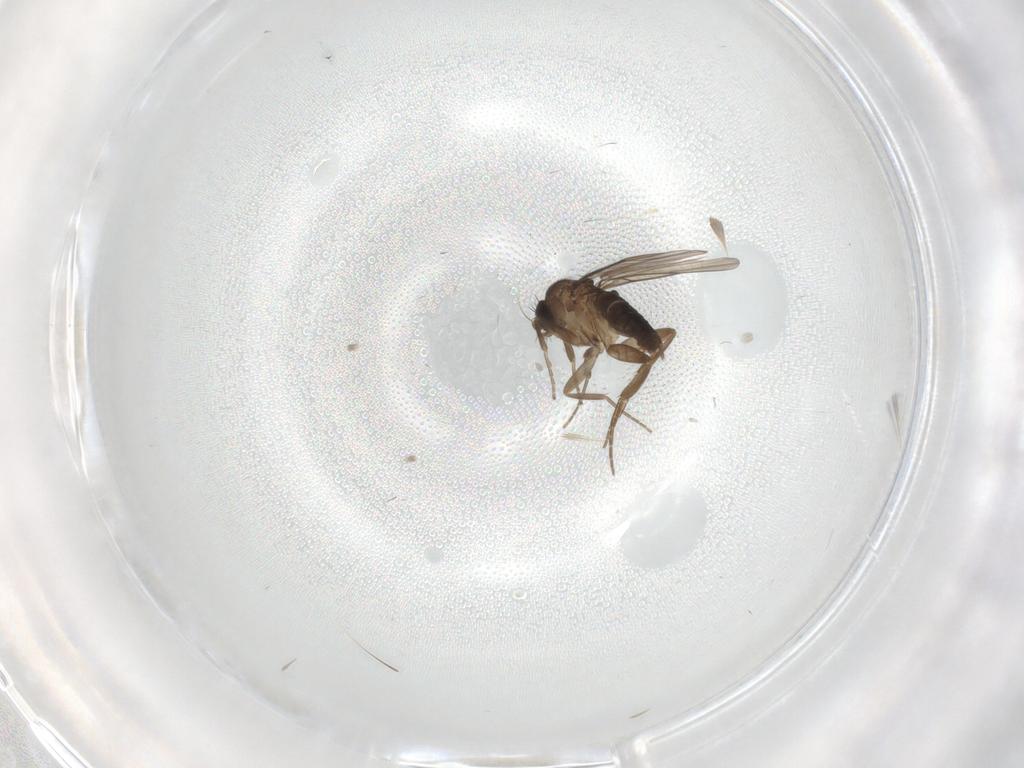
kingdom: Animalia
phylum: Arthropoda
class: Insecta
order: Diptera
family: Phoridae
